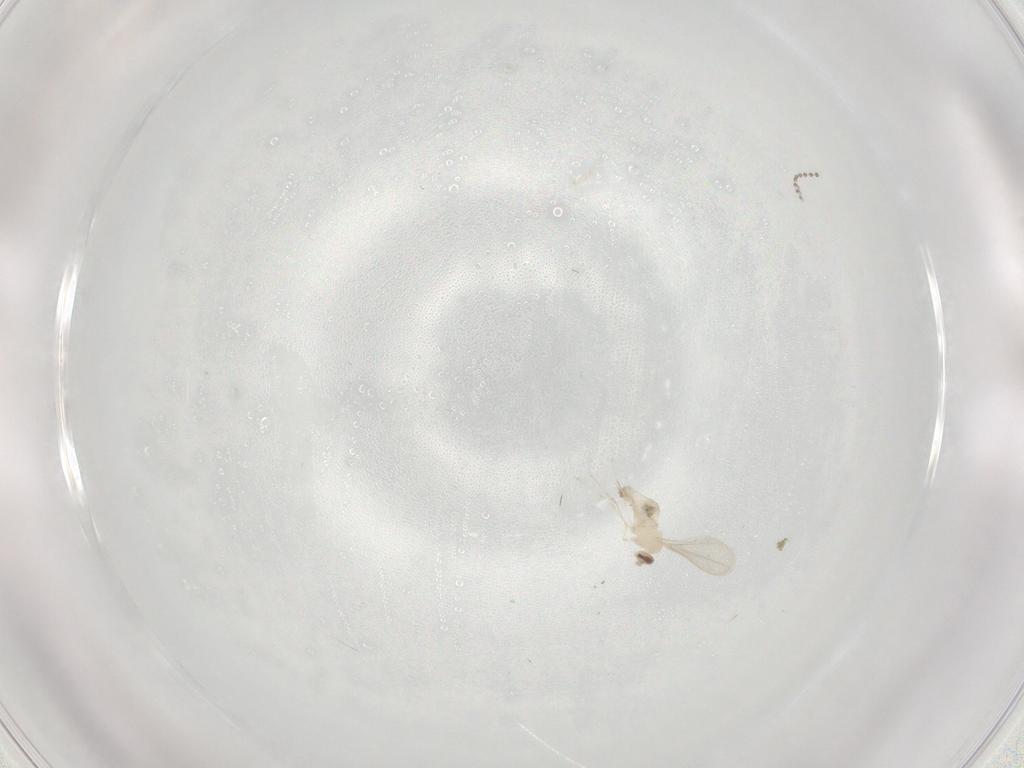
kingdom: Animalia
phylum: Arthropoda
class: Insecta
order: Diptera
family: Cecidomyiidae
